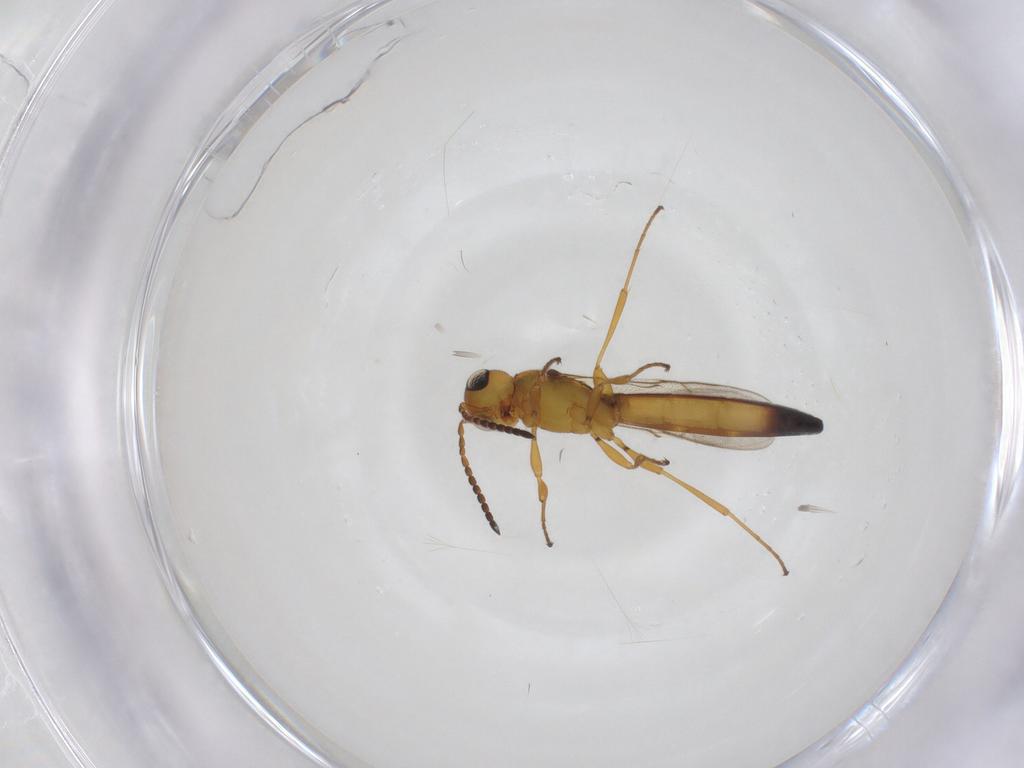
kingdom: Animalia
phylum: Arthropoda
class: Insecta
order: Hymenoptera
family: Scelionidae
